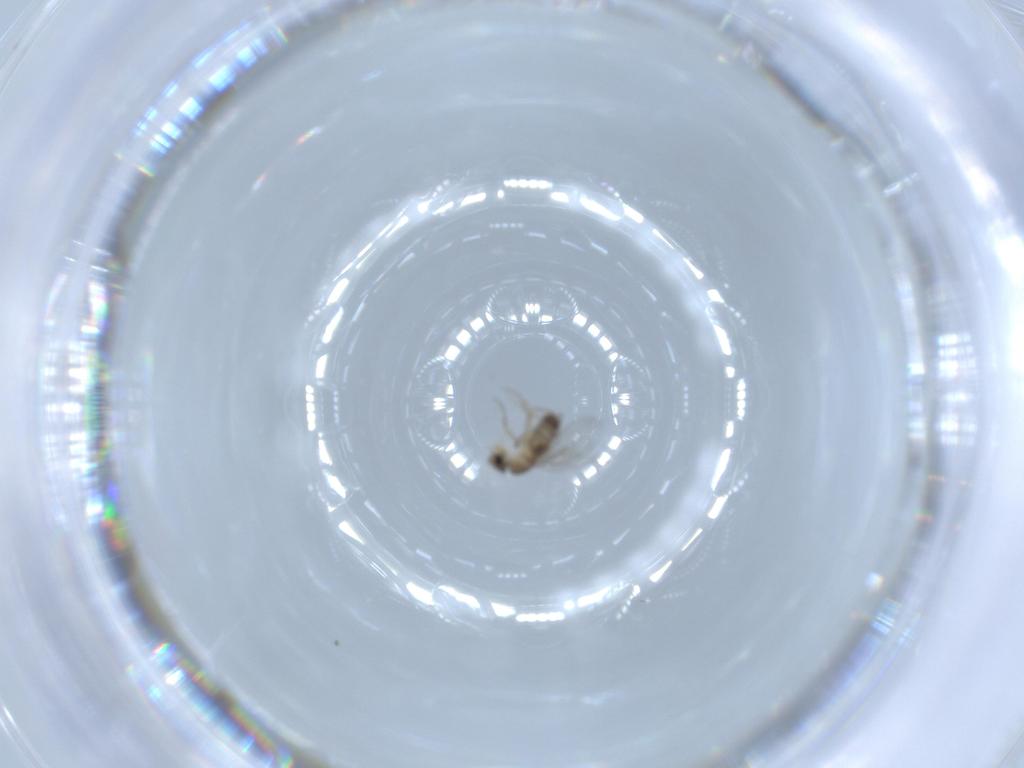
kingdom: Animalia
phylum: Arthropoda
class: Insecta
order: Diptera
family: Phoridae
